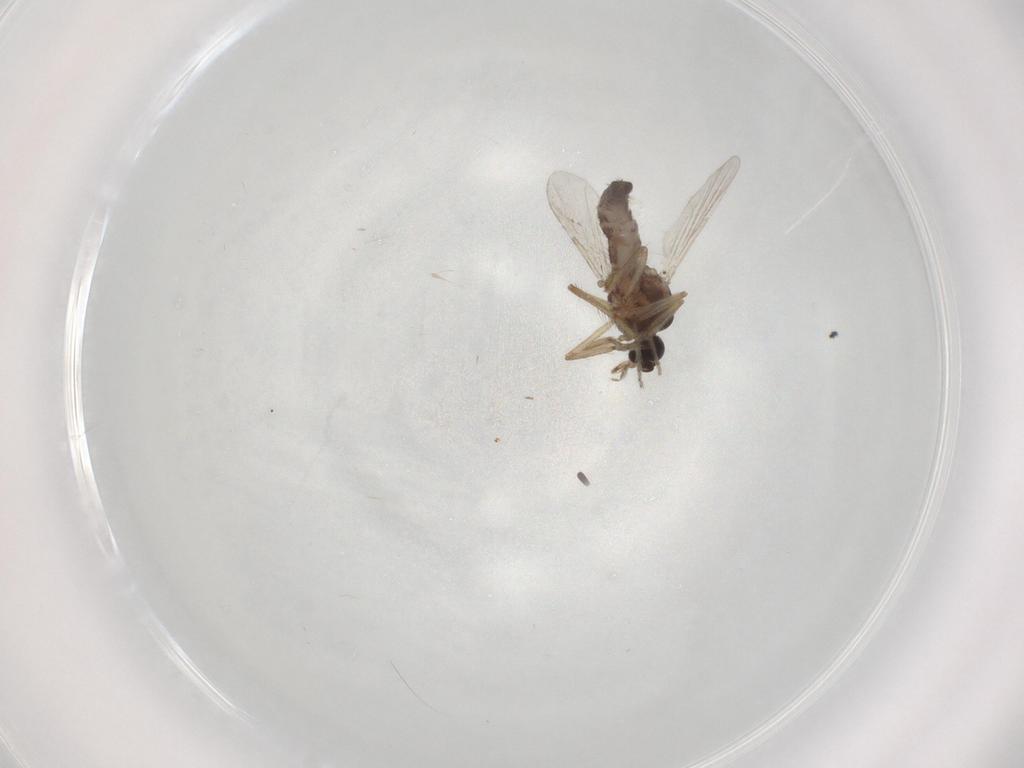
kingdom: Animalia
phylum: Arthropoda
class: Insecta
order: Diptera
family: Ceratopogonidae
